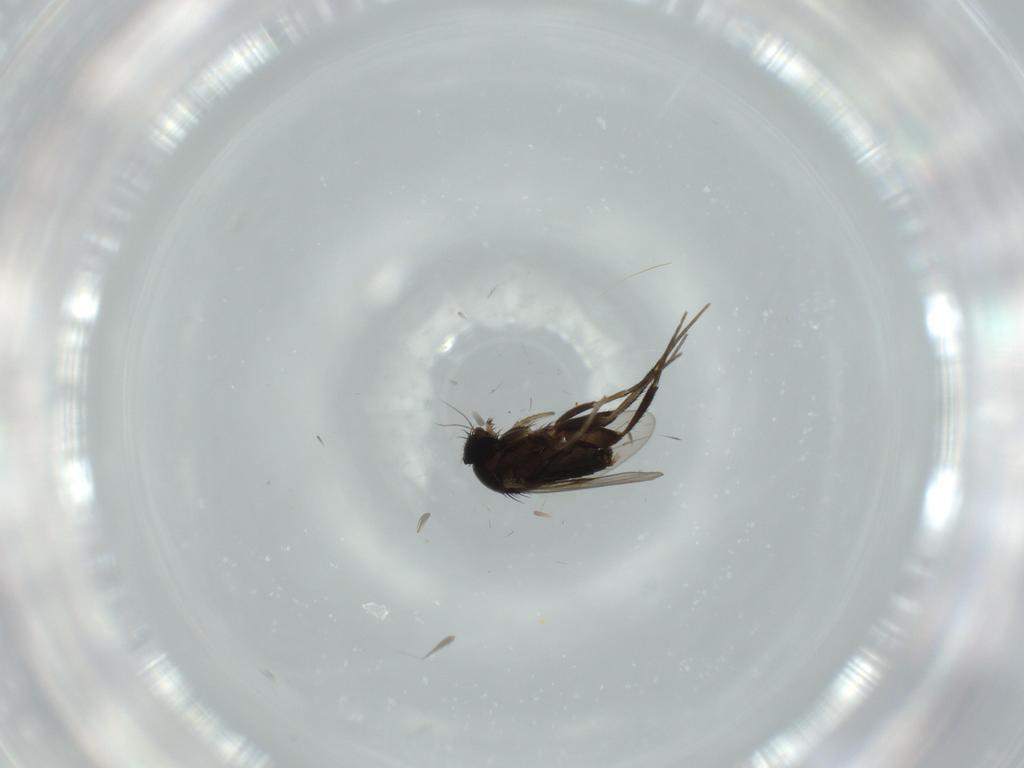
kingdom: Animalia
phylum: Arthropoda
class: Insecta
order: Diptera
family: Phoridae
